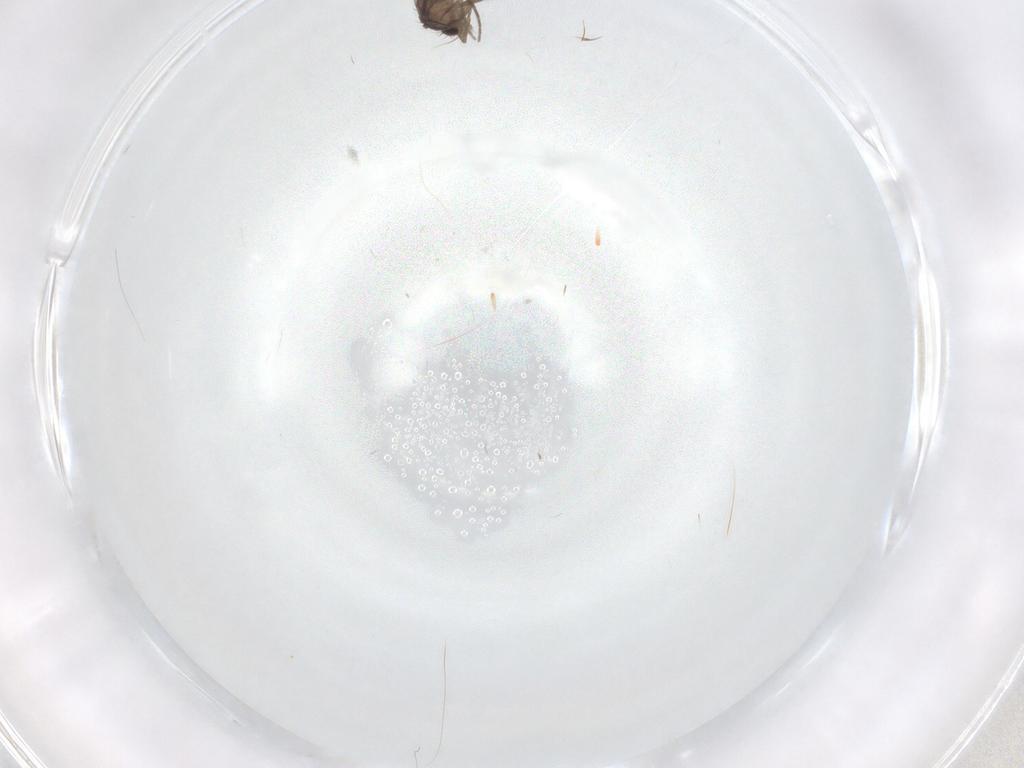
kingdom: Animalia
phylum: Arthropoda
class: Insecta
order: Diptera
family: Phoridae
